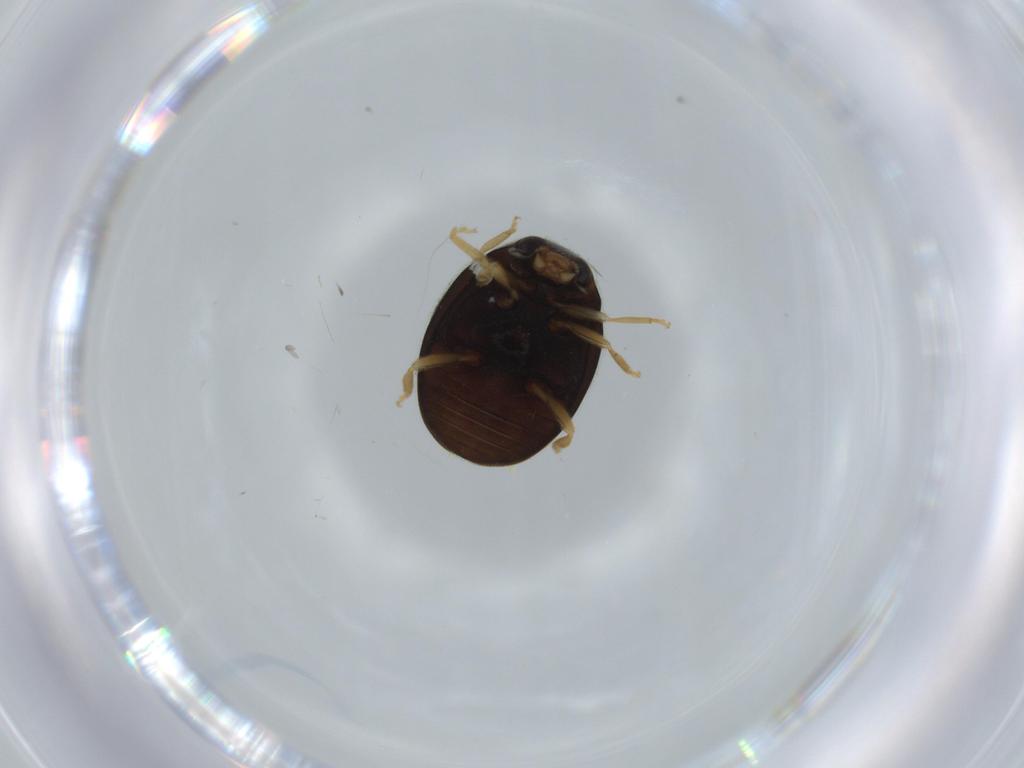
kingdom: Animalia
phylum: Arthropoda
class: Insecta
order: Coleoptera
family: Coccinellidae
